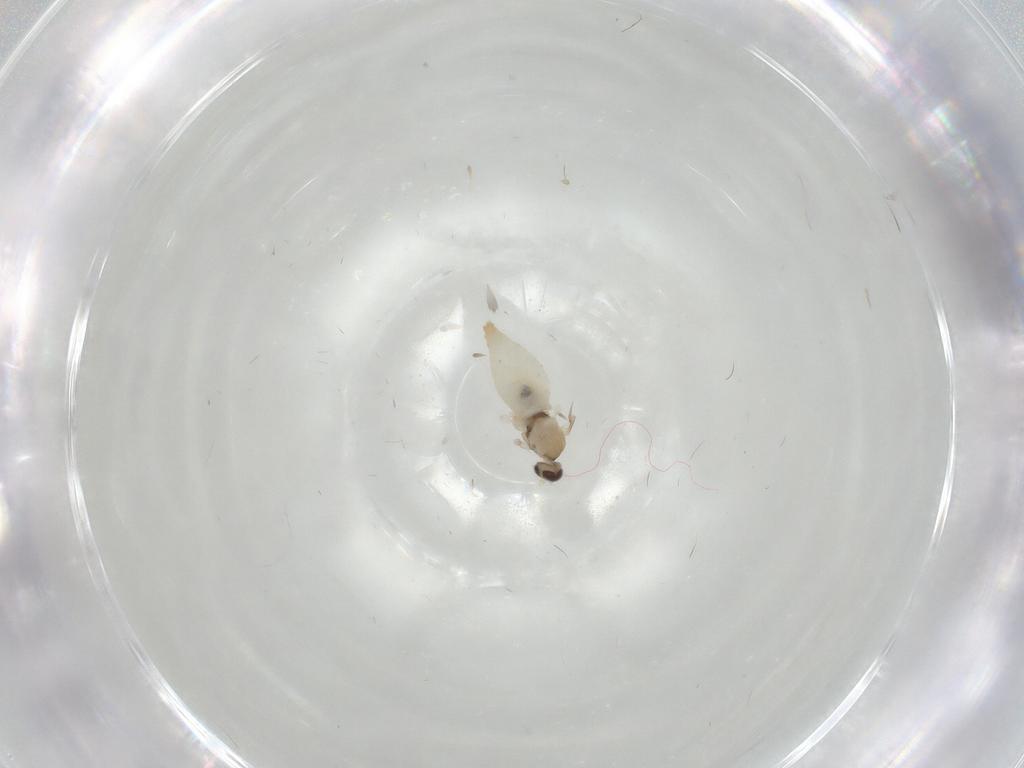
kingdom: Animalia
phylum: Arthropoda
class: Insecta
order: Diptera
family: Cecidomyiidae
